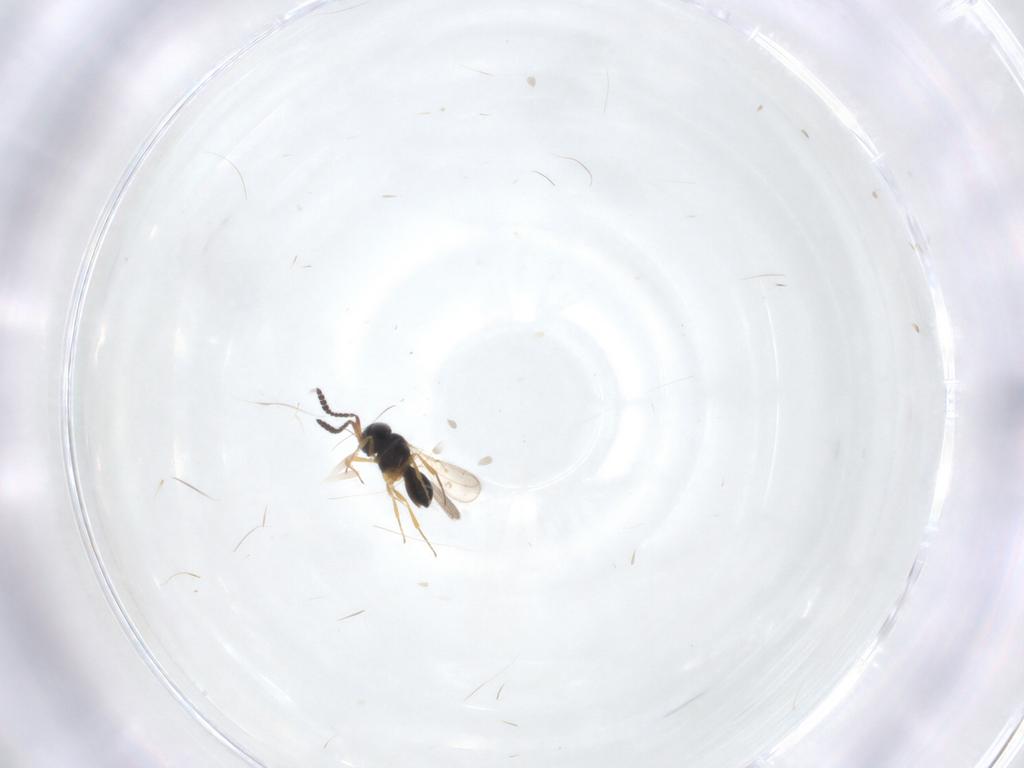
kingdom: Animalia
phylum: Arthropoda
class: Insecta
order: Hymenoptera
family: Scelionidae
